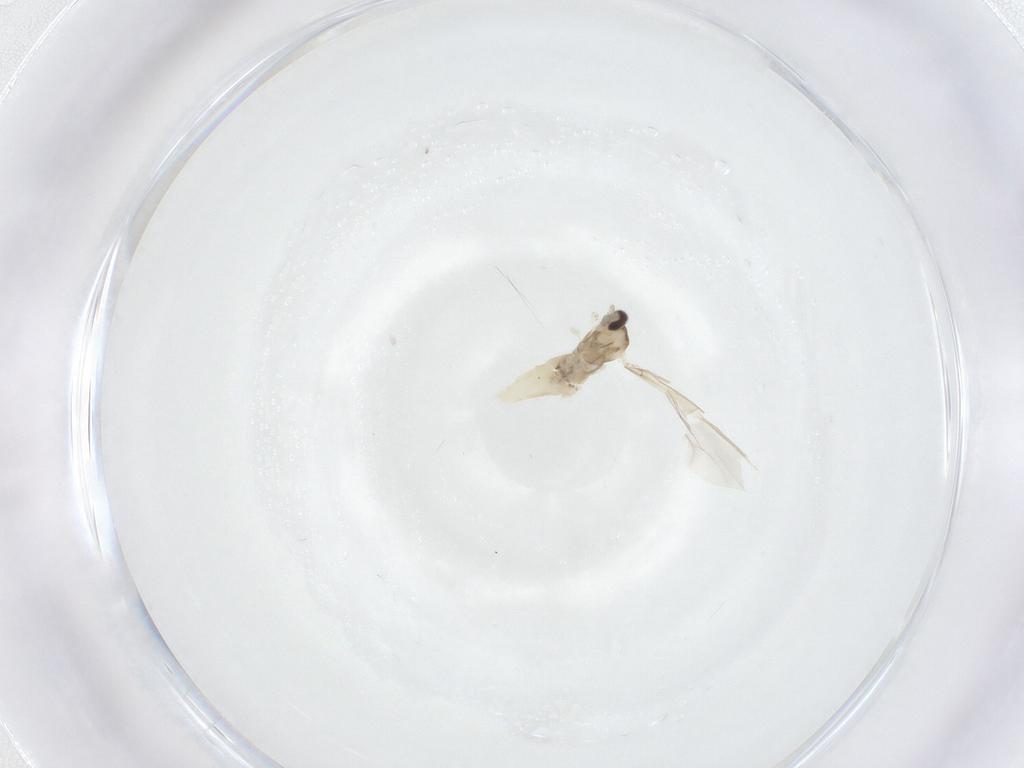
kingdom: Animalia
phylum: Arthropoda
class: Insecta
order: Diptera
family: Cecidomyiidae
